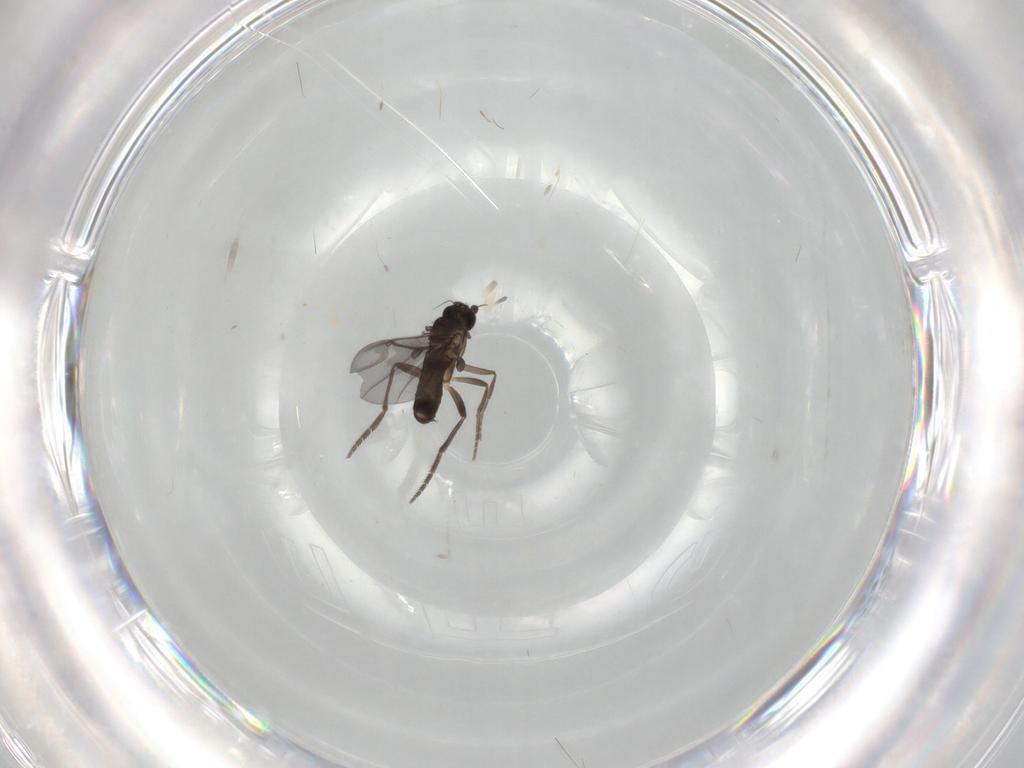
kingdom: Animalia
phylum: Arthropoda
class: Insecta
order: Diptera
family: Phoridae
